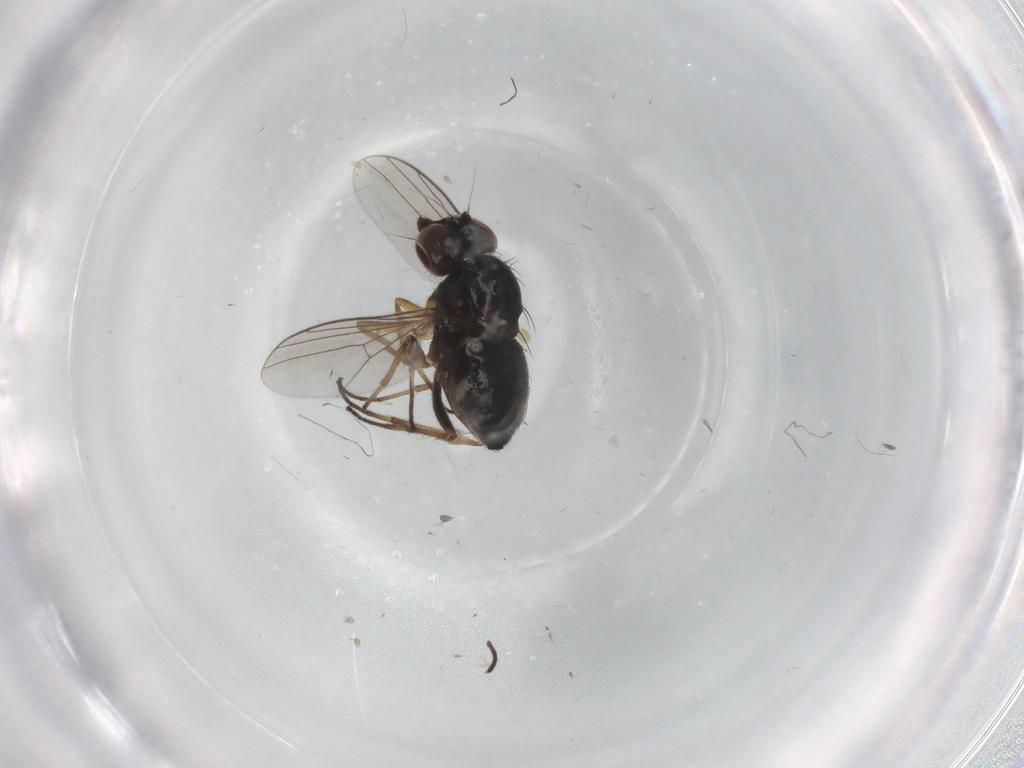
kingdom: Animalia
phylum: Arthropoda
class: Insecta
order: Diptera
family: Dolichopodidae
